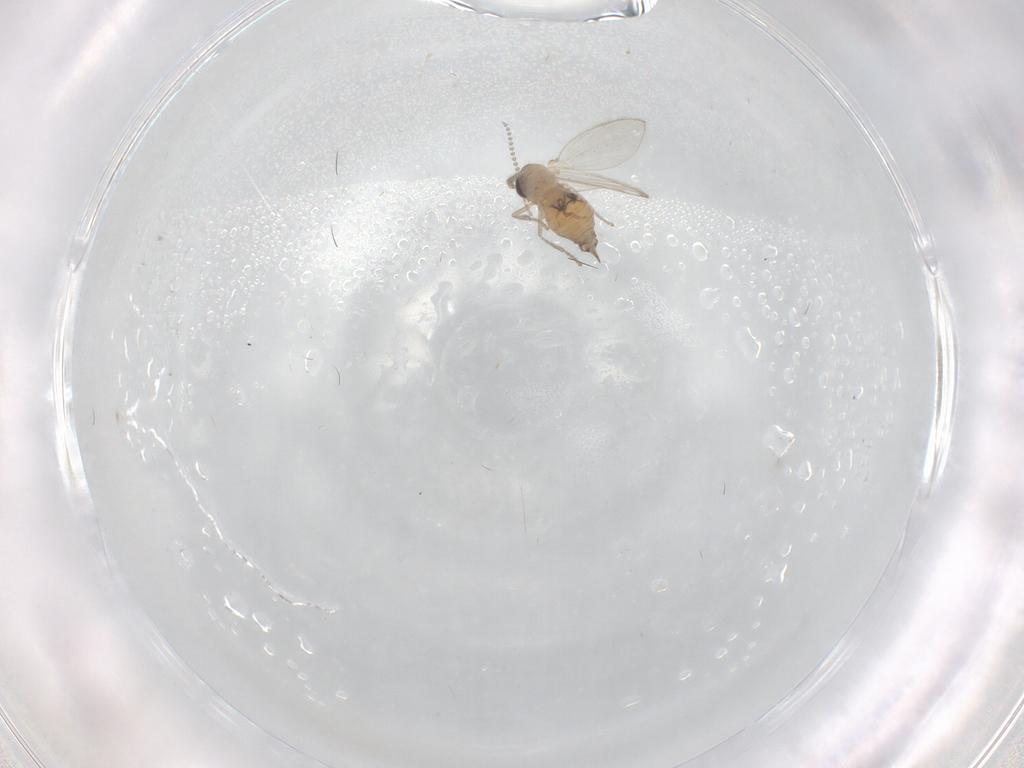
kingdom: Animalia
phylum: Arthropoda
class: Insecta
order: Diptera
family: Psychodidae
